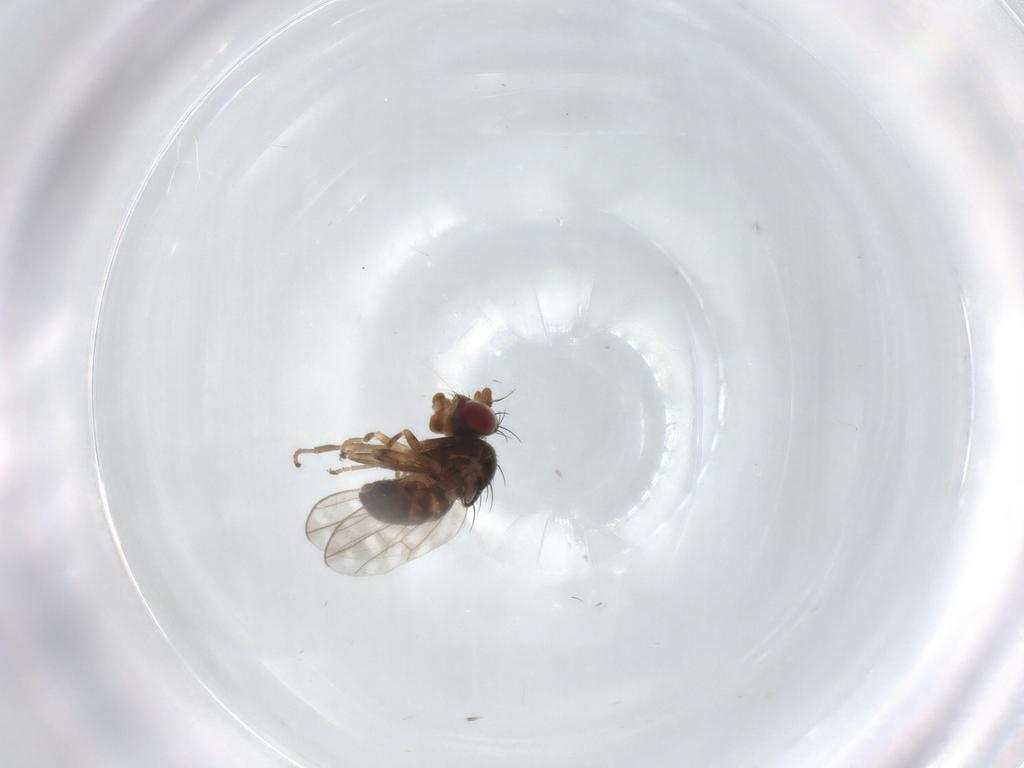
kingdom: Animalia
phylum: Arthropoda
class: Insecta
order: Diptera
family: Ephydridae
